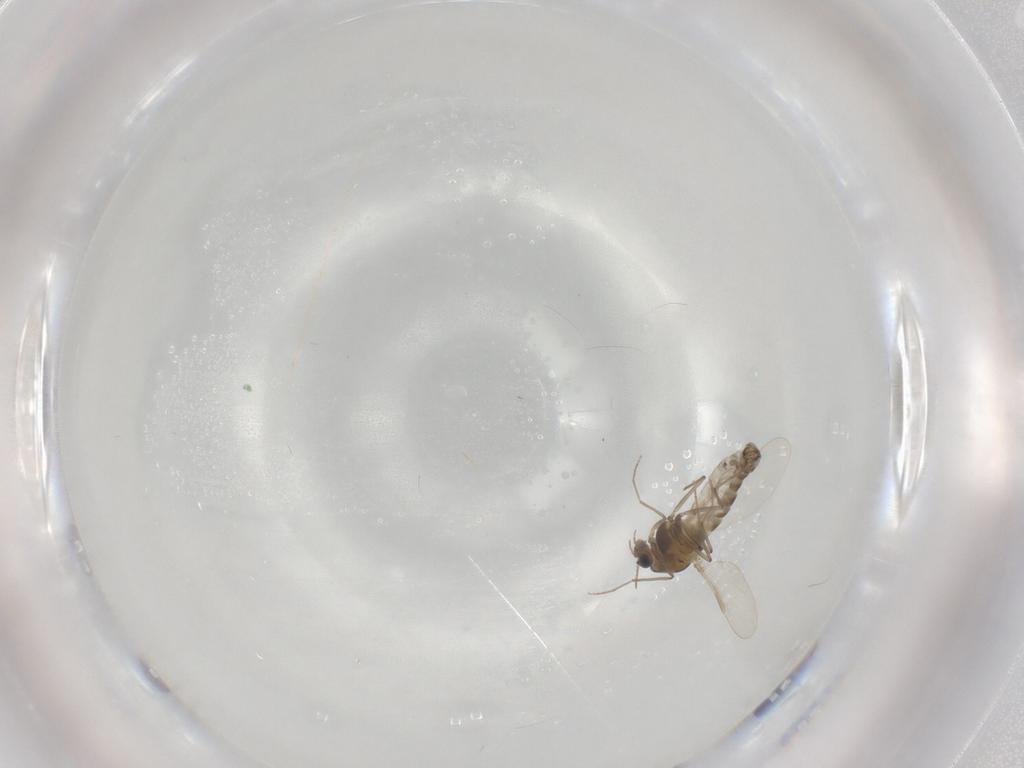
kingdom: Animalia
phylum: Arthropoda
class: Insecta
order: Diptera
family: Chironomidae
